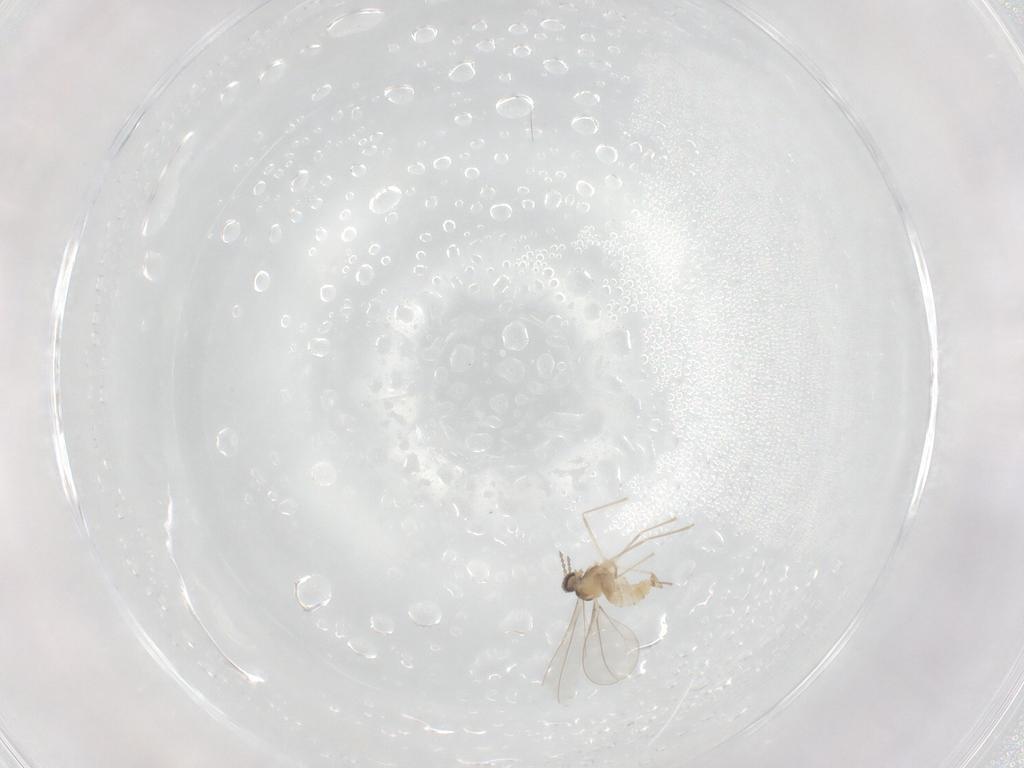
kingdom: Animalia
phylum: Arthropoda
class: Insecta
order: Diptera
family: Cecidomyiidae
